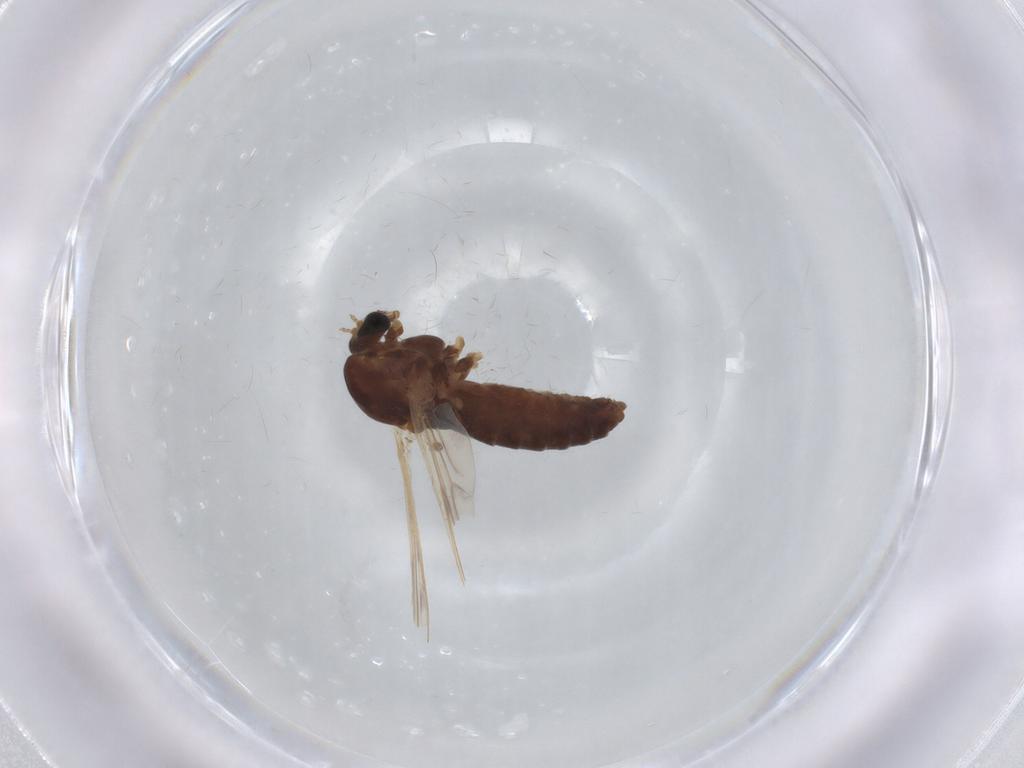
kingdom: Animalia
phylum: Arthropoda
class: Insecta
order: Diptera
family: Chironomidae
